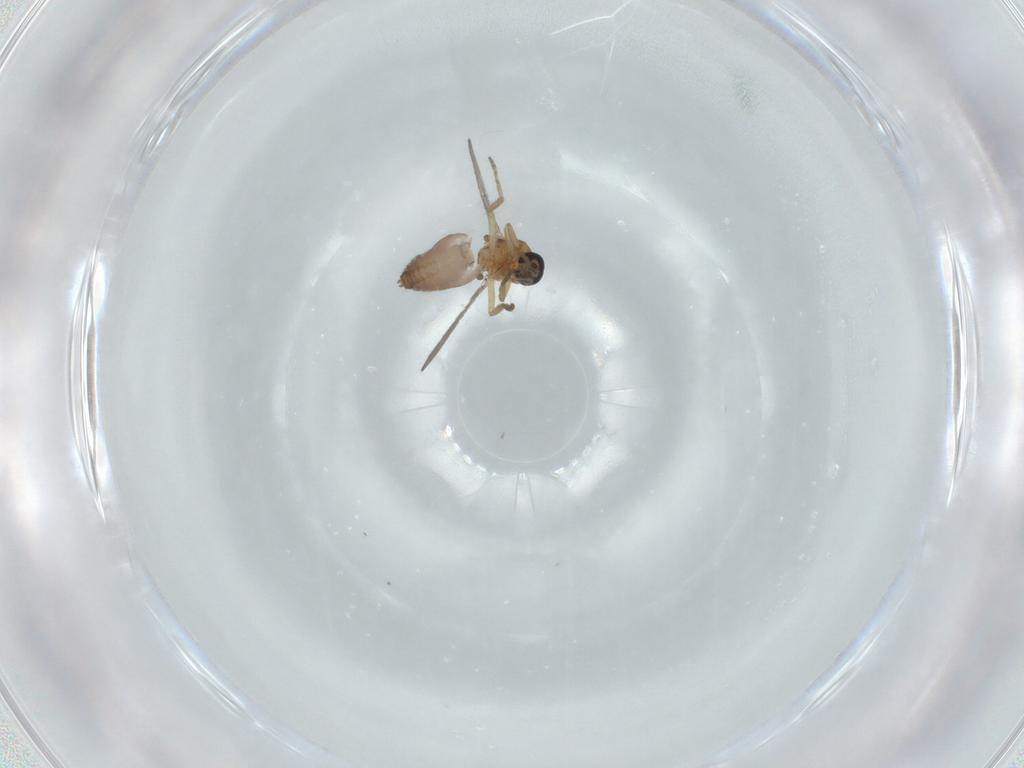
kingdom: Animalia
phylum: Arthropoda
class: Insecta
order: Diptera
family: Ceratopogonidae
